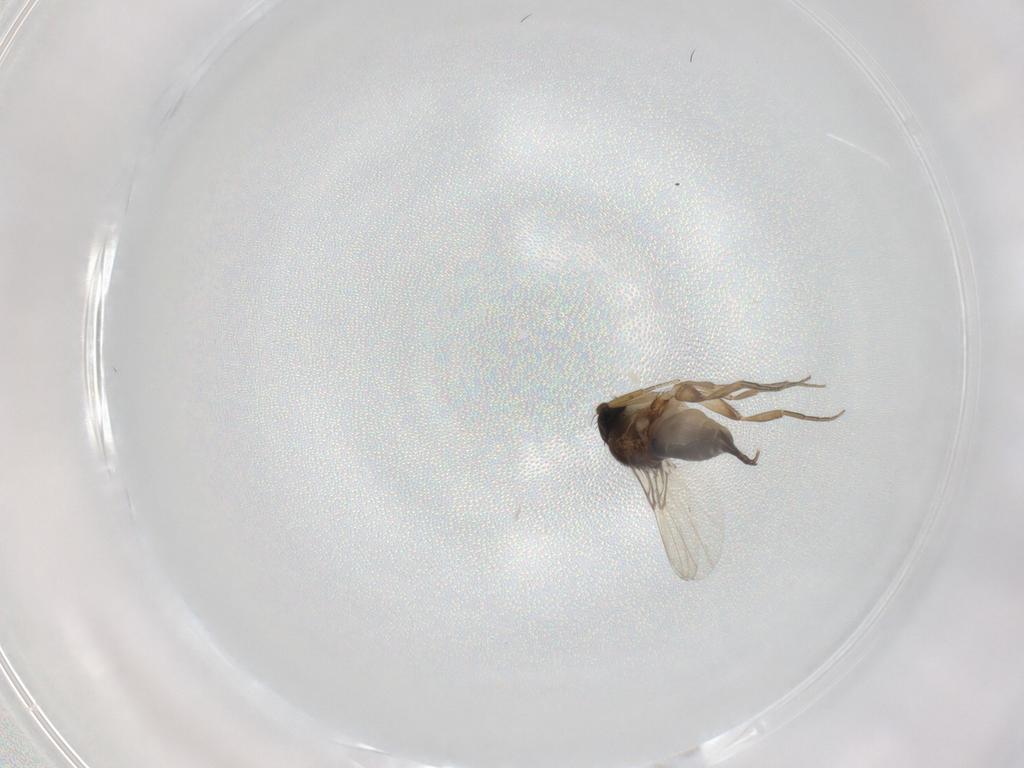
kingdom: Animalia
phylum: Arthropoda
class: Insecta
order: Diptera
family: Phoridae
